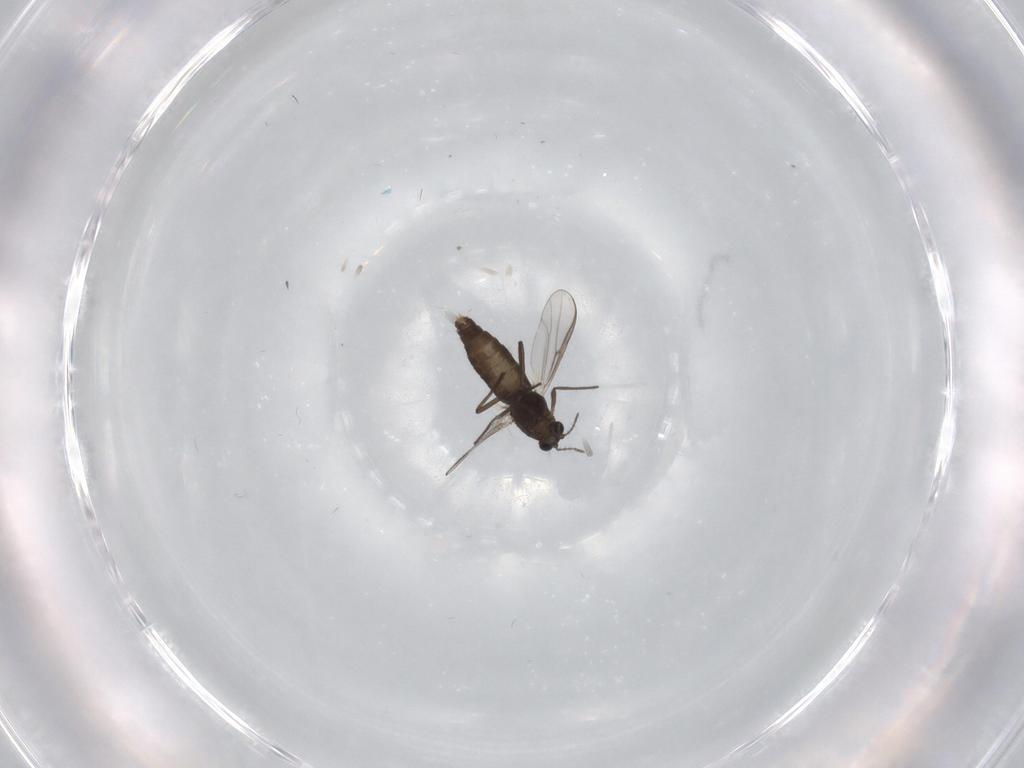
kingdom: Animalia
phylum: Arthropoda
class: Insecta
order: Diptera
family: Chironomidae
